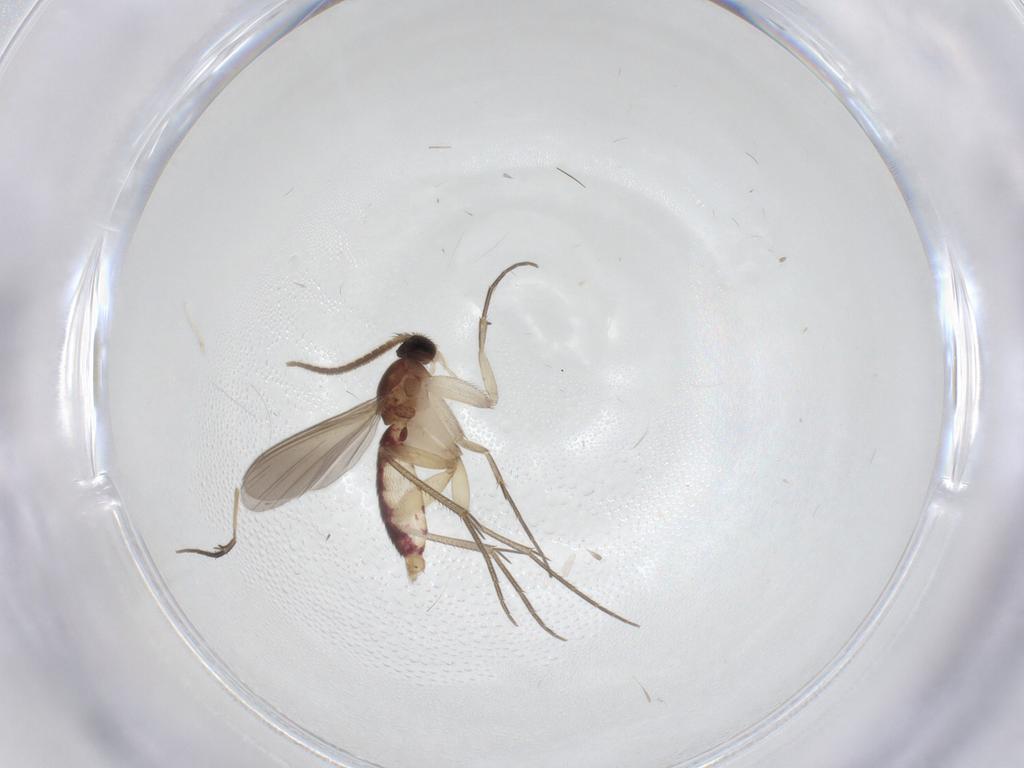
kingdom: Animalia
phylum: Arthropoda
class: Insecta
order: Diptera
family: Mycetophilidae
